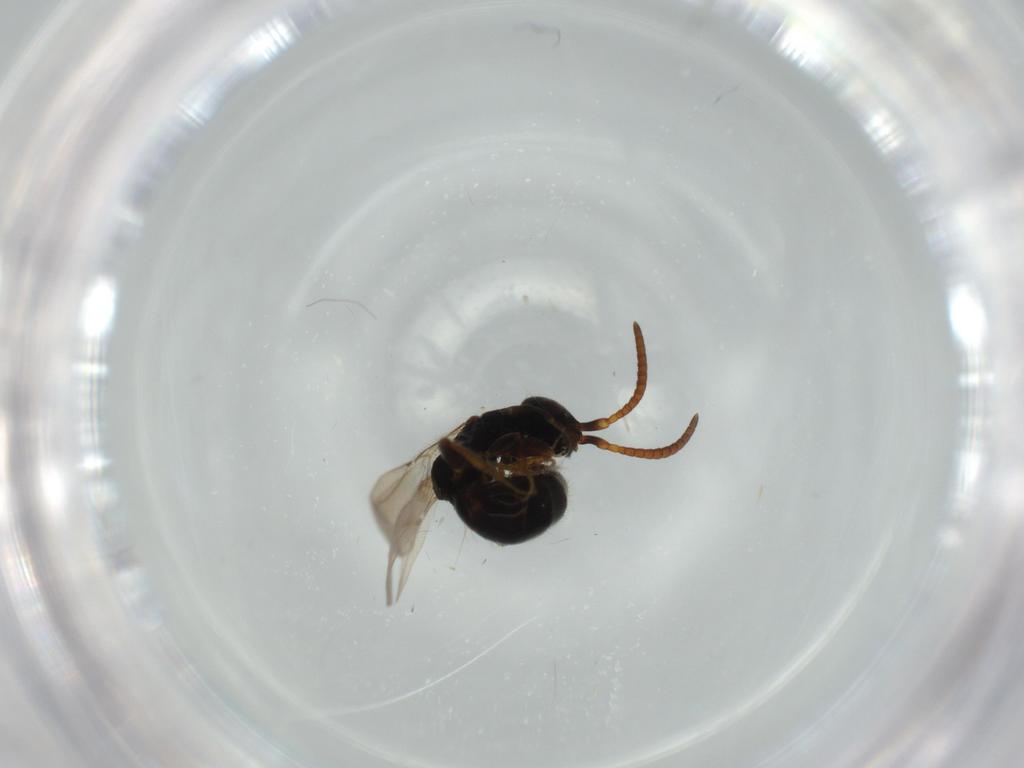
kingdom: Animalia
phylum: Arthropoda
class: Insecta
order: Hymenoptera
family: Bethylidae
